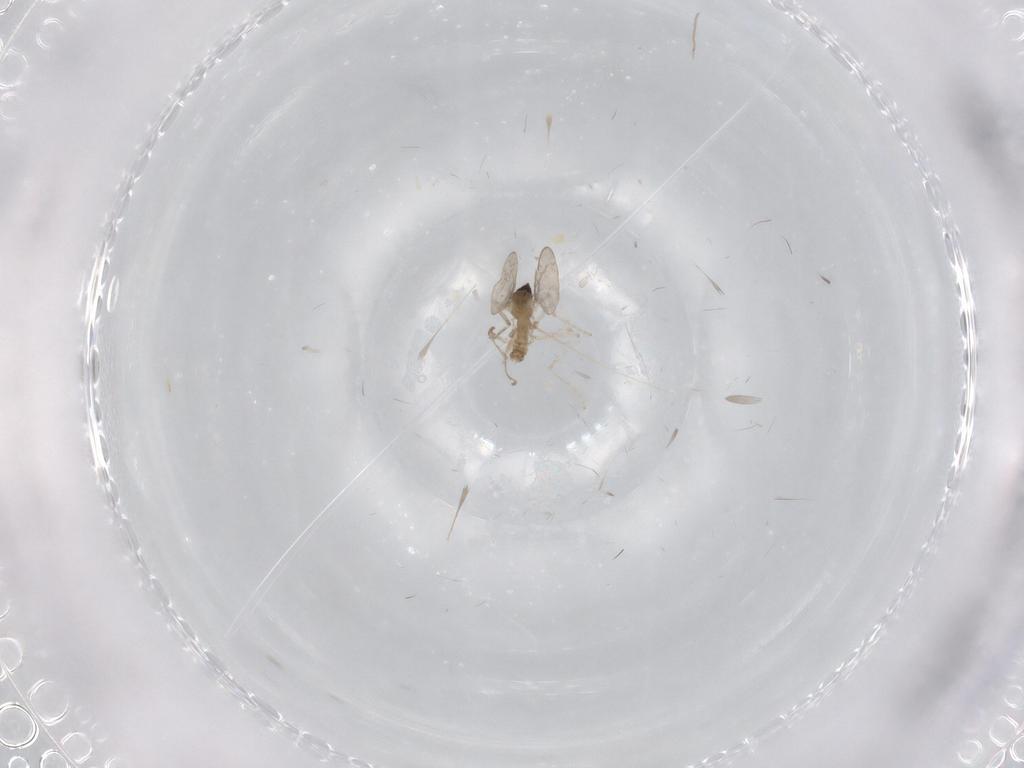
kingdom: Animalia
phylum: Arthropoda
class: Insecta
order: Diptera
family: Cecidomyiidae
